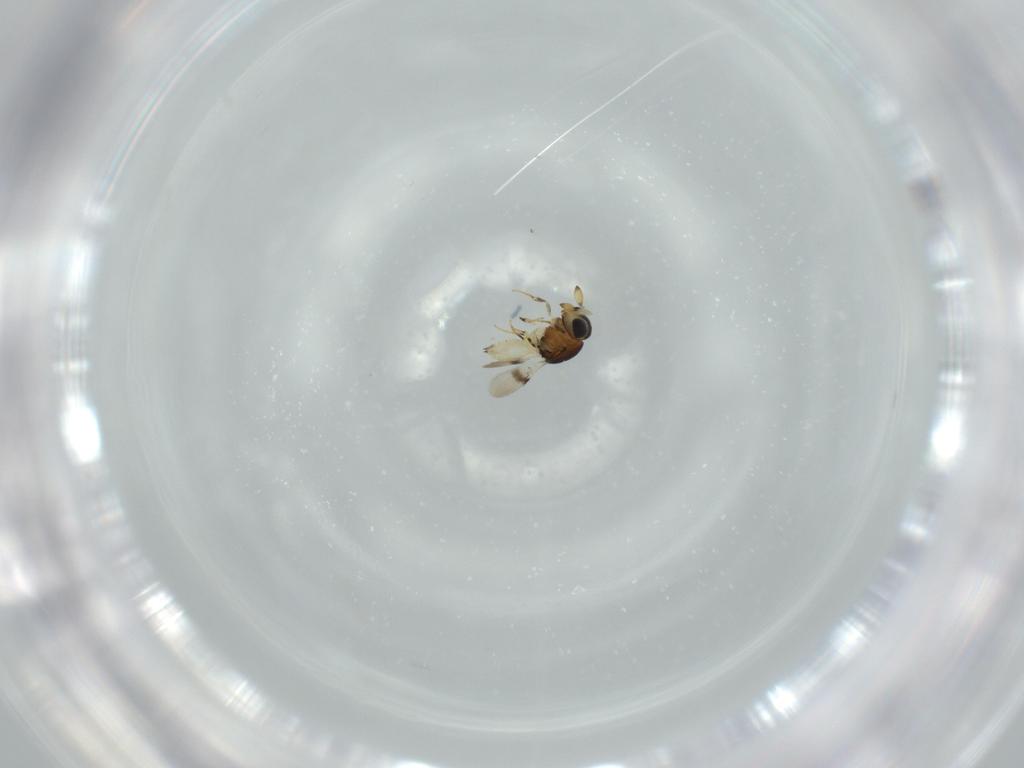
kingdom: Animalia
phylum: Arthropoda
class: Insecta
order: Hymenoptera
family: Scelionidae
